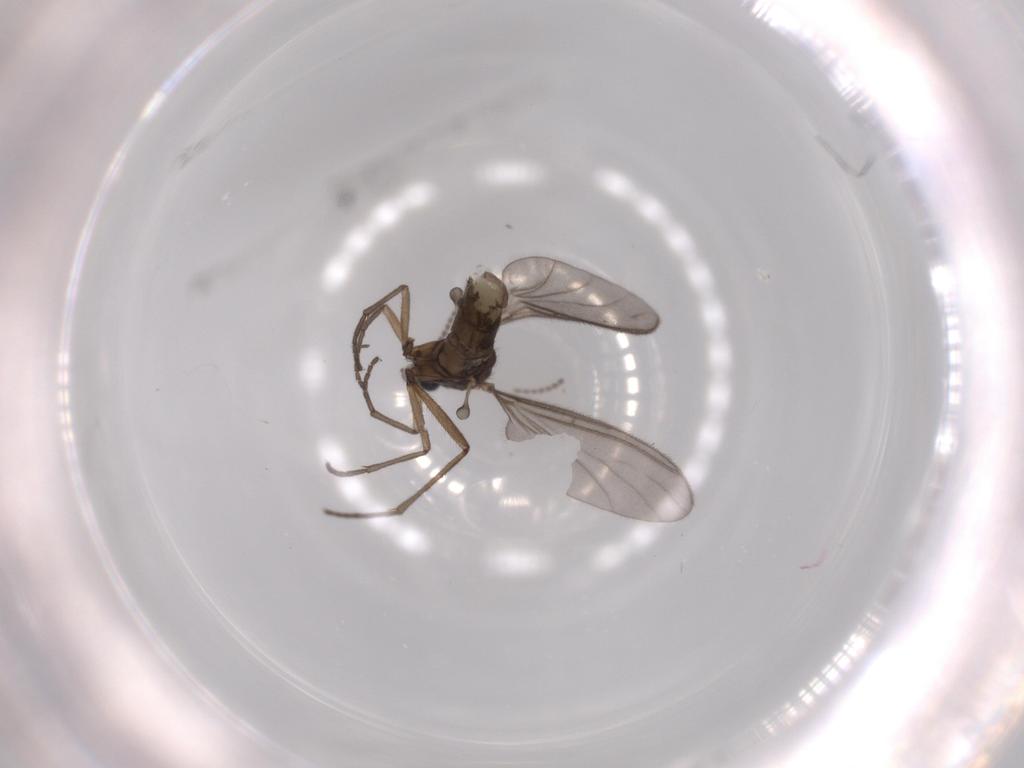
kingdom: Animalia
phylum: Arthropoda
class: Insecta
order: Diptera
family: Sciaridae
